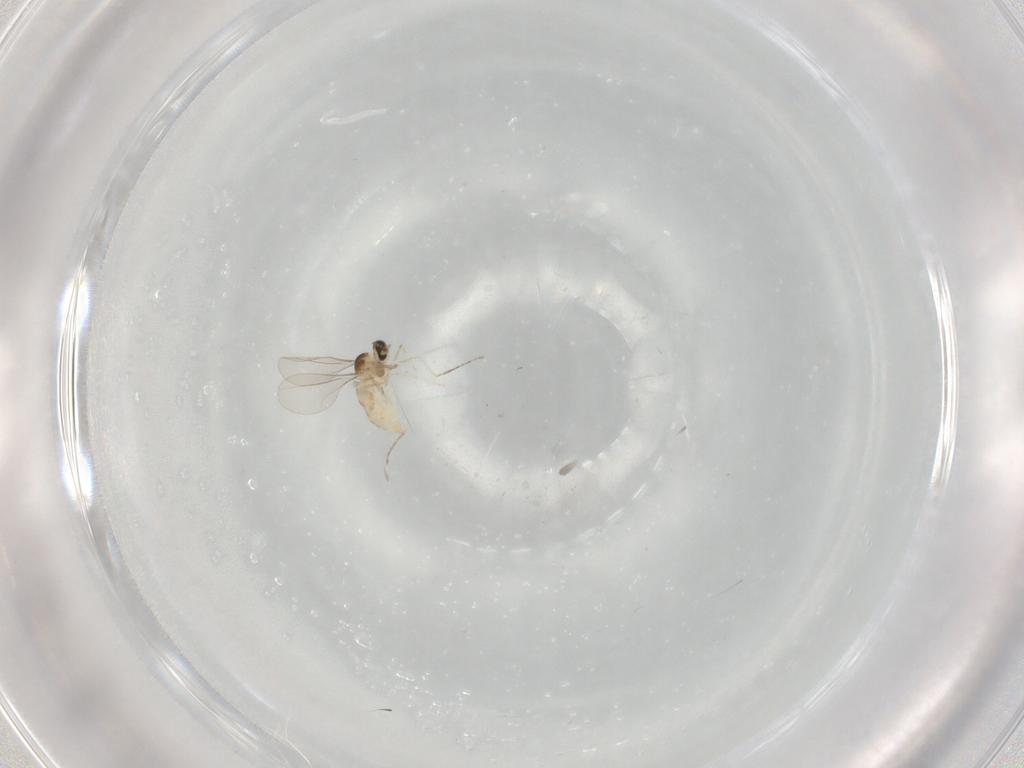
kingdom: Animalia
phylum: Arthropoda
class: Insecta
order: Diptera
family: Cecidomyiidae
